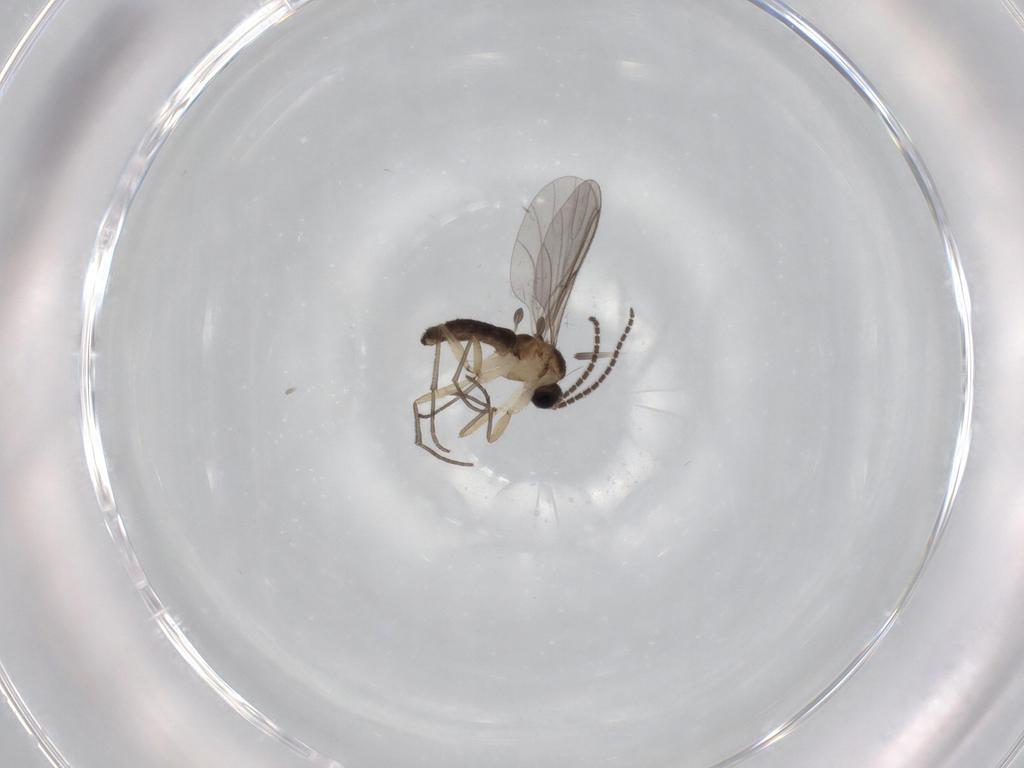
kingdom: Animalia
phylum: Arthropoda
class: Insecta
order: Diptera
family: Sciaridae
